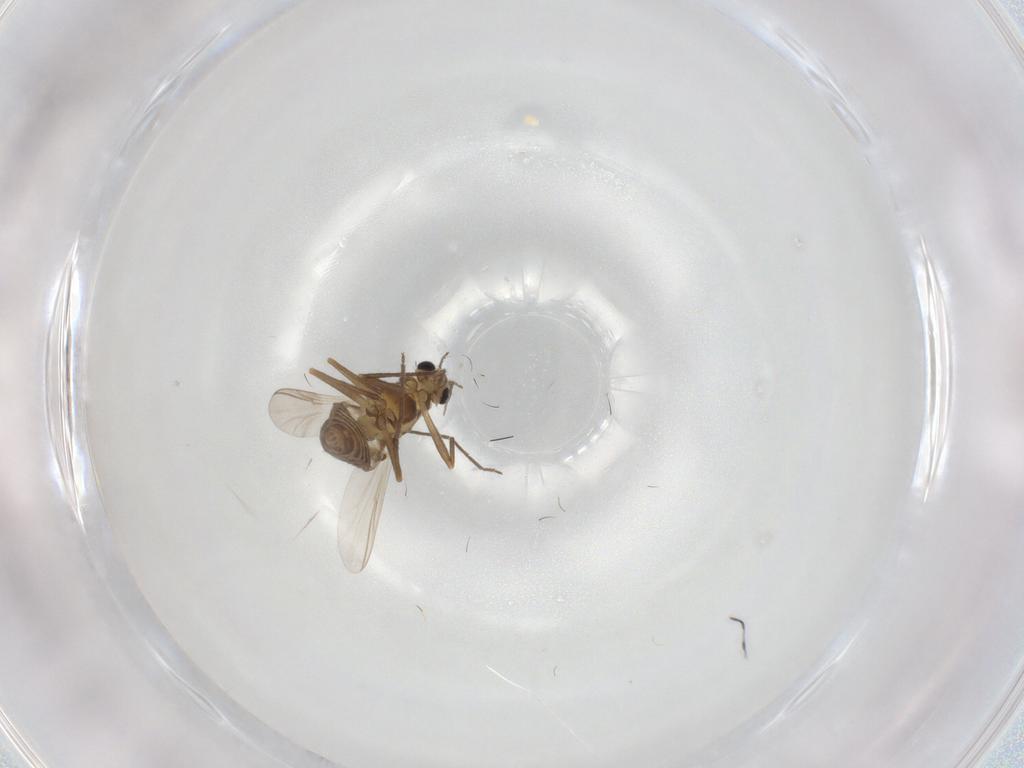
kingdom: Animalia
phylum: Arthropoda
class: Insecta
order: Diptera
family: Chironomidae
